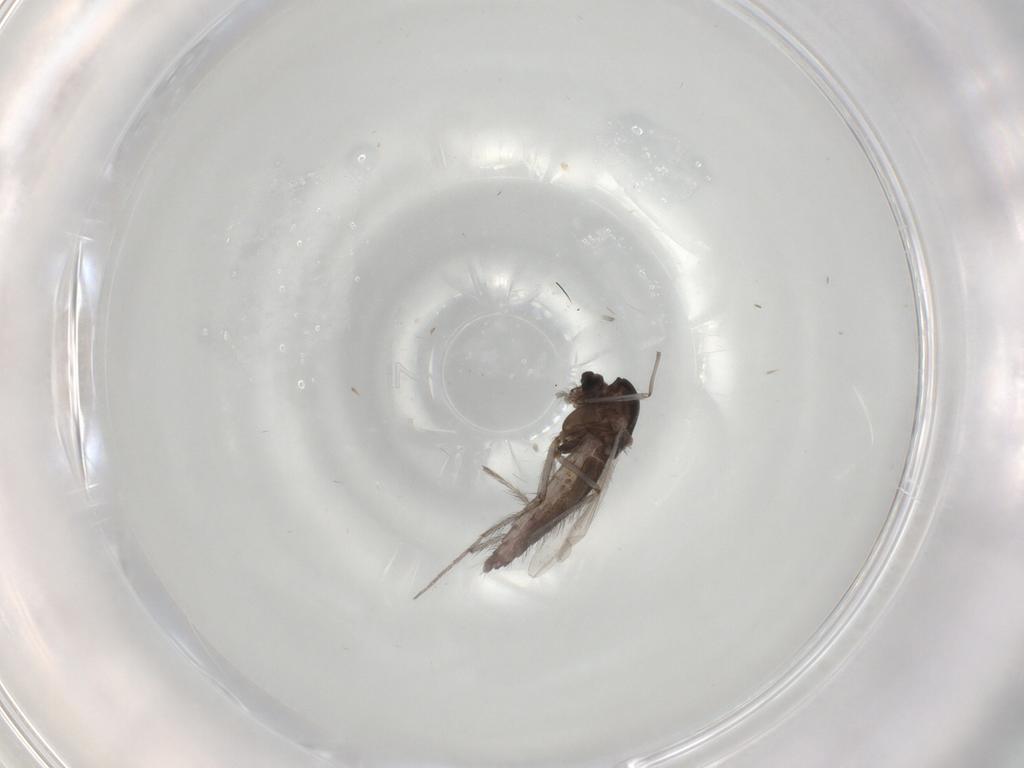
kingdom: Animalia
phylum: Arthropoda
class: Insecta
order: Diptera
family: Chironomidae
